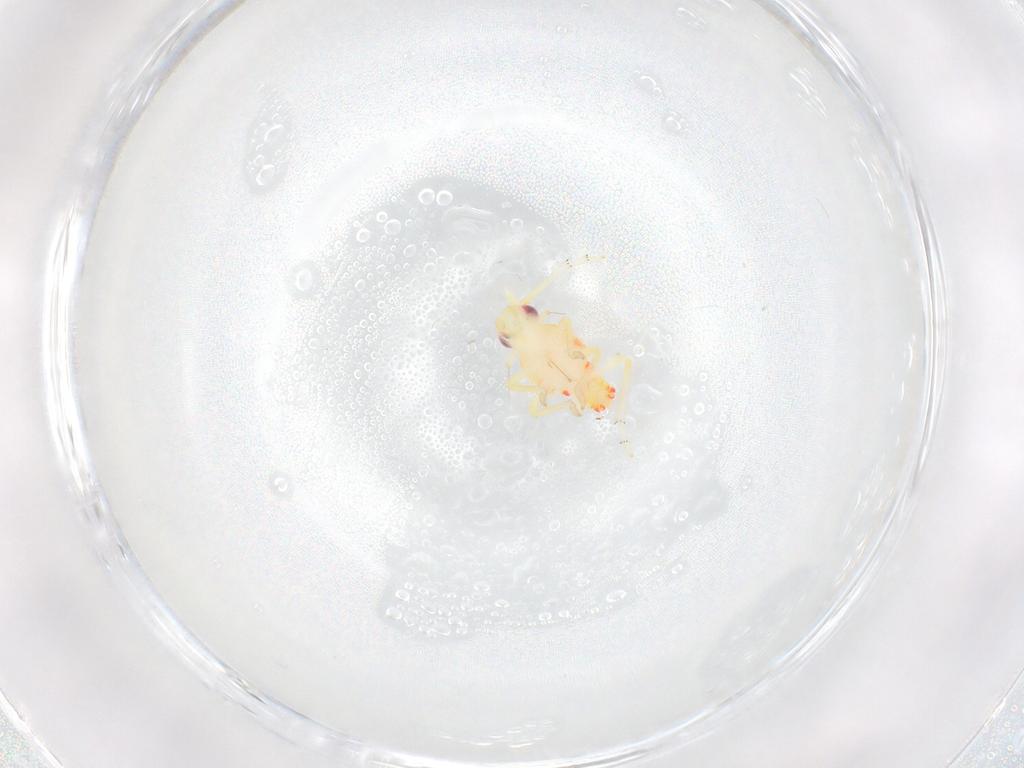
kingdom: Animalia
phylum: Arthropoda
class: Insecta
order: Hemiptera
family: Tropiduchidae
